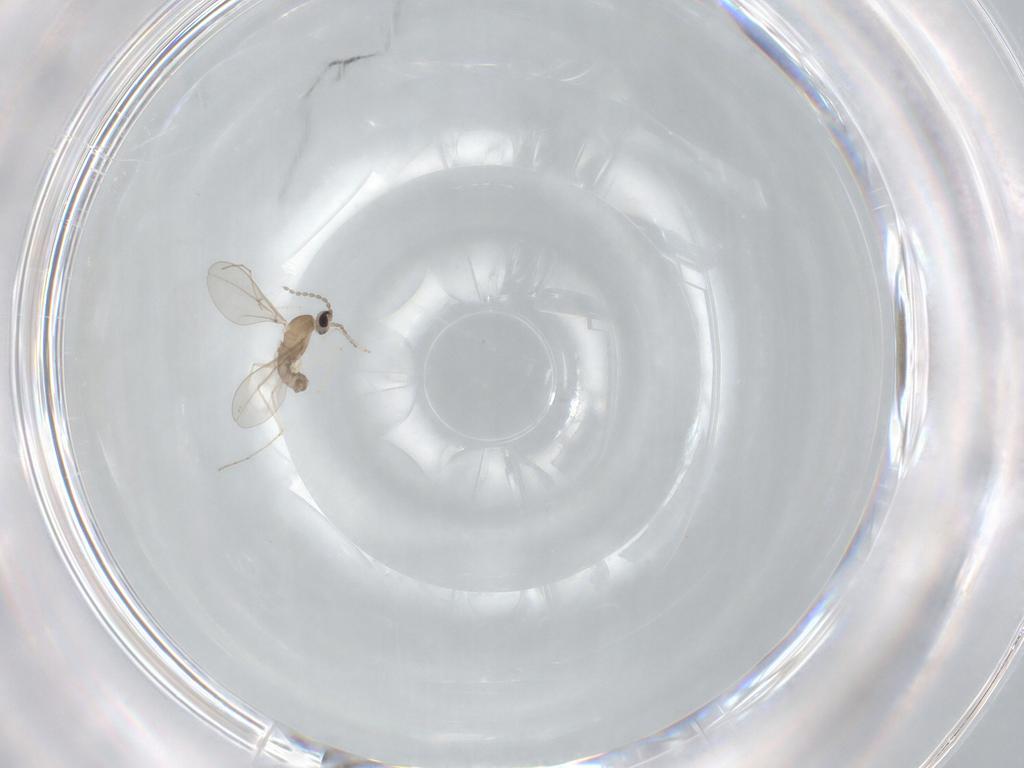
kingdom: Animalia
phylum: Arthropoda
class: Insecta
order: Diptera
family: Cecidomyiidae
